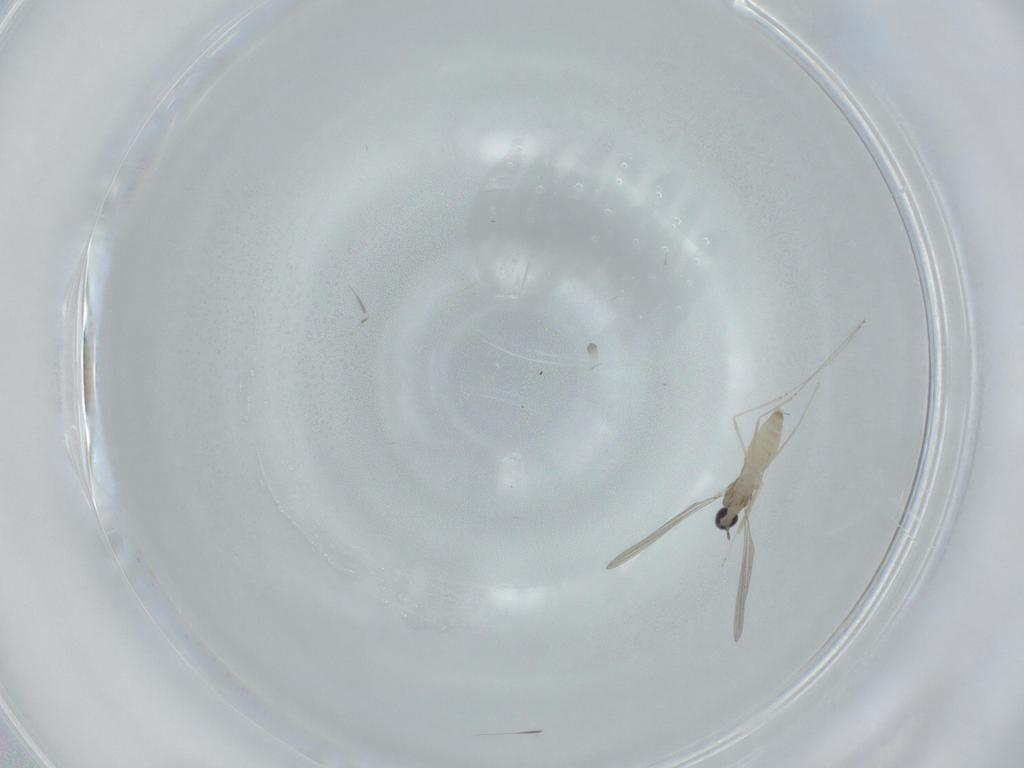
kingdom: Animalia
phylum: Arthropoda
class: Insecta
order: Diptera
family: Cecidomyiidae
